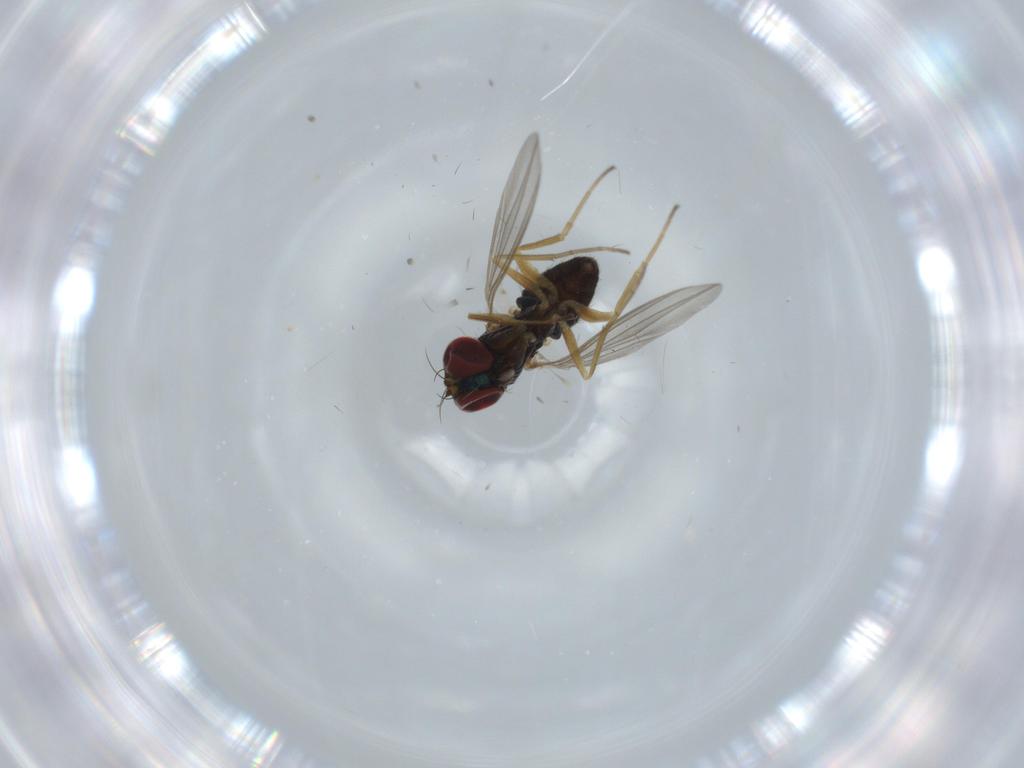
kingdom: Animalia
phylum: Arthropoda
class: Insecta
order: Diptera
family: Dolichopodidae
